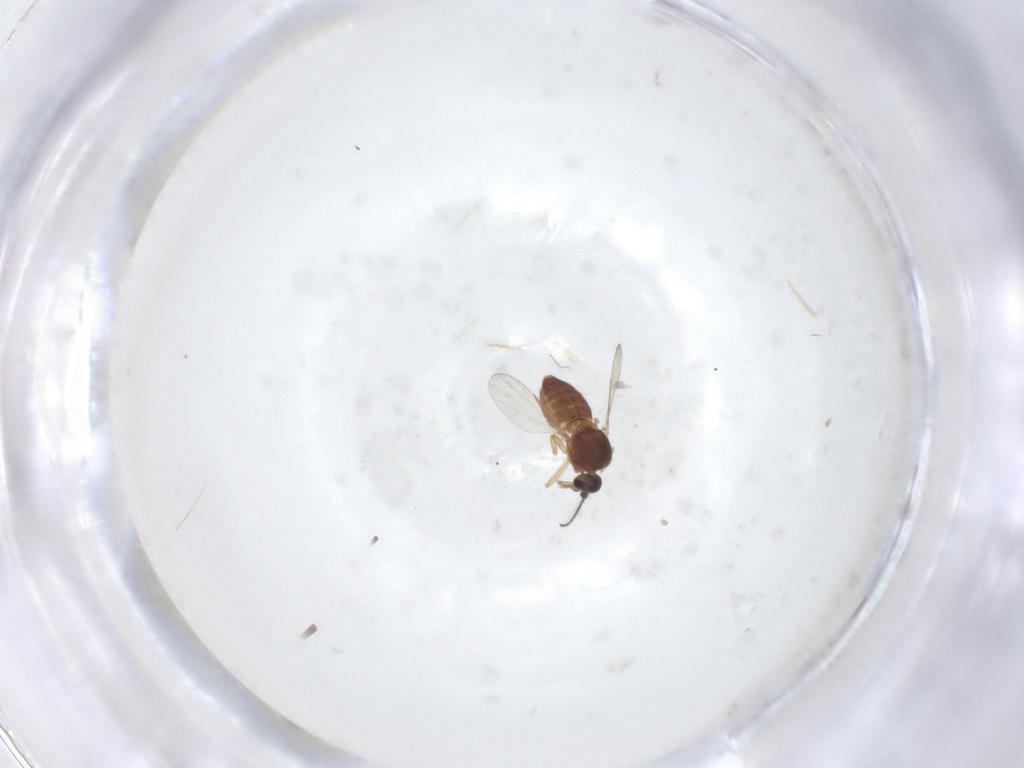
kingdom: Animalia
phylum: Arthropoda
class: Insecta
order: Diptera
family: Ceratopogonidae
